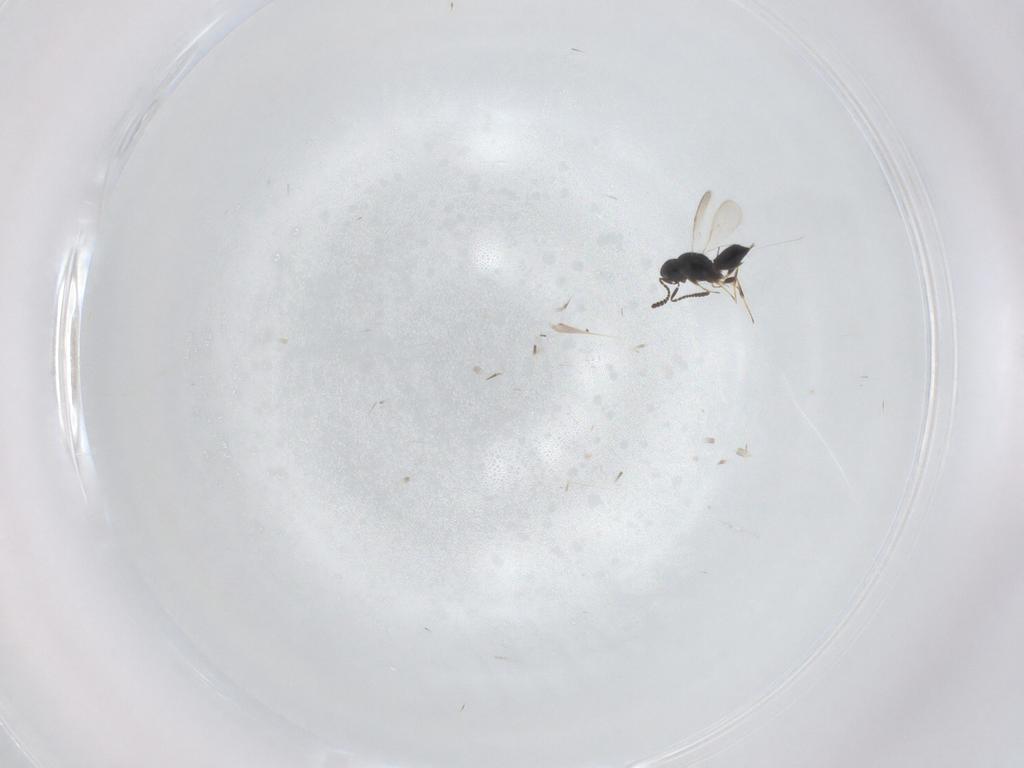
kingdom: Animalia
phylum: Arthropoda
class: Insecta
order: Hymenoptera
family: Scelionidae
